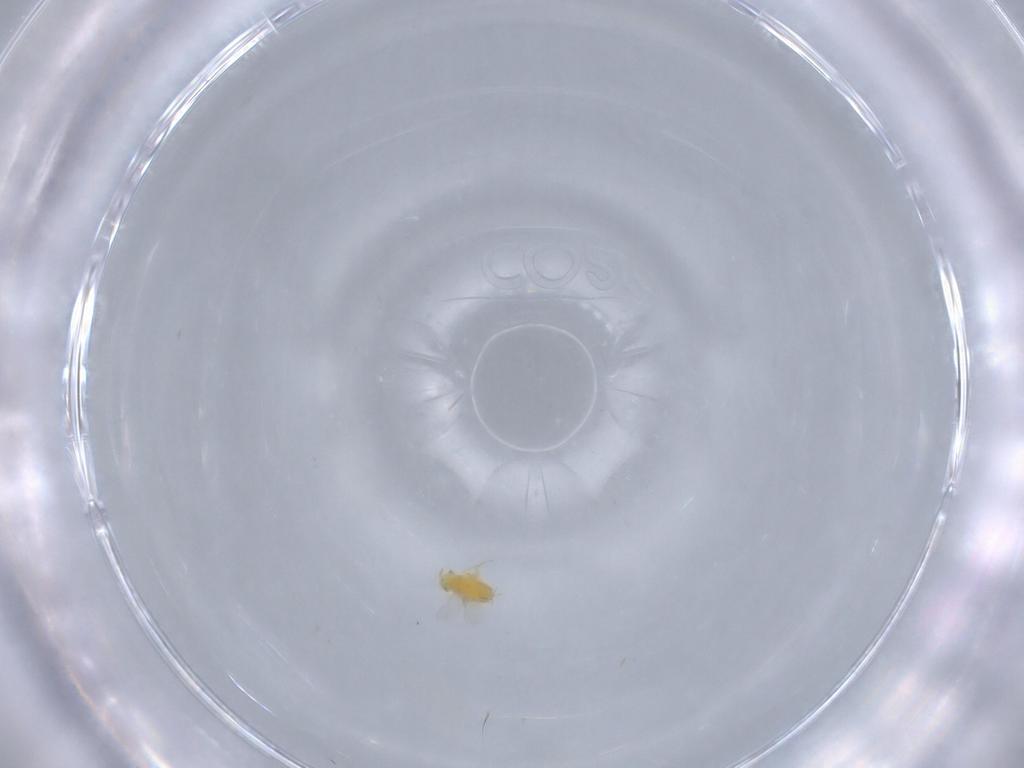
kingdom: Animalia
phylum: Arthropoda
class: Insecta
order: Hymenoptera
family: Aphelinidae
